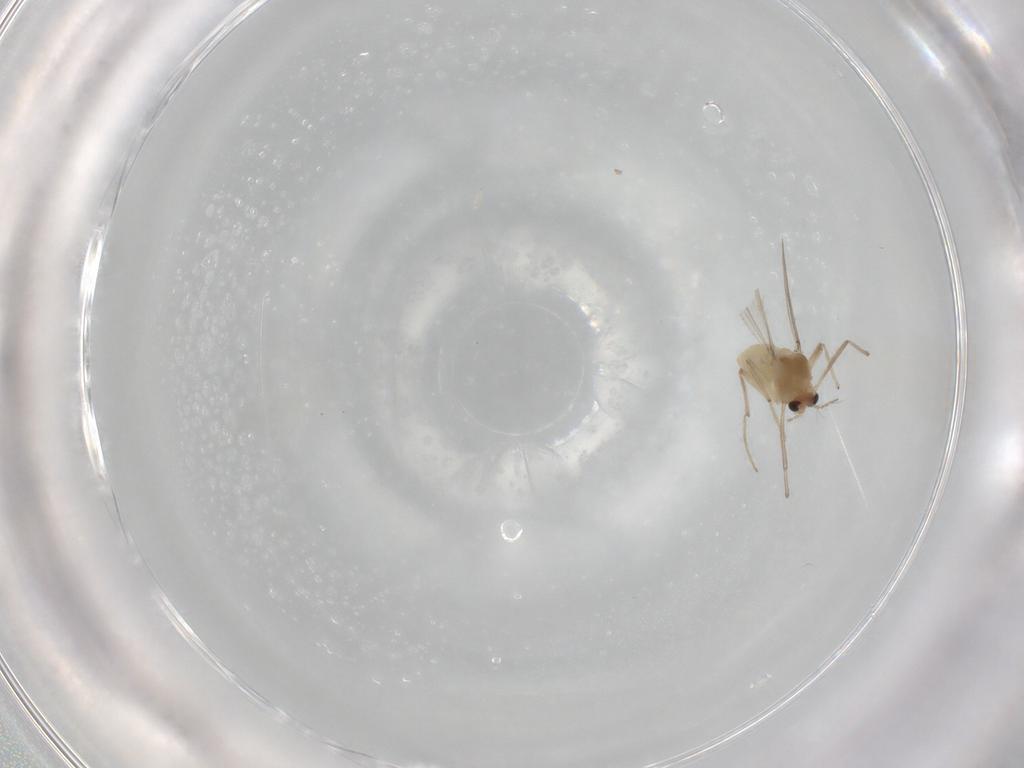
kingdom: Animalia
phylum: Arthropoda
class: Insecta
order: Diptera
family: Chironomidae
